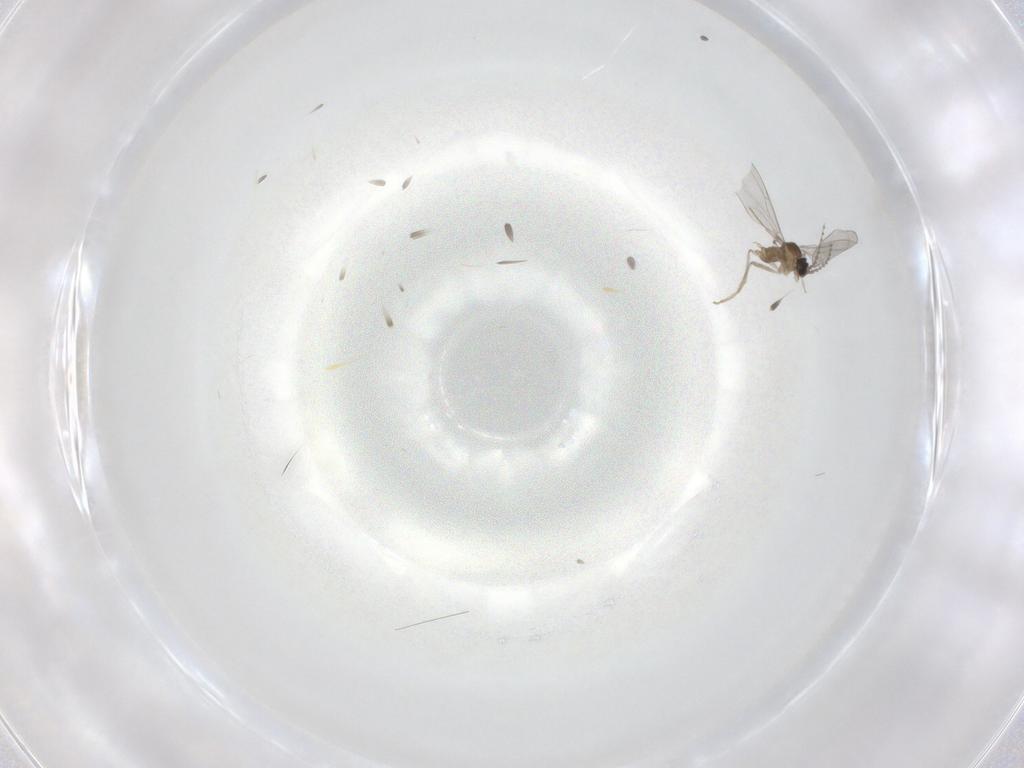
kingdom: Animalia
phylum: Arthropoda
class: Insecta
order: Diptera
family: Cecidomyiidae
